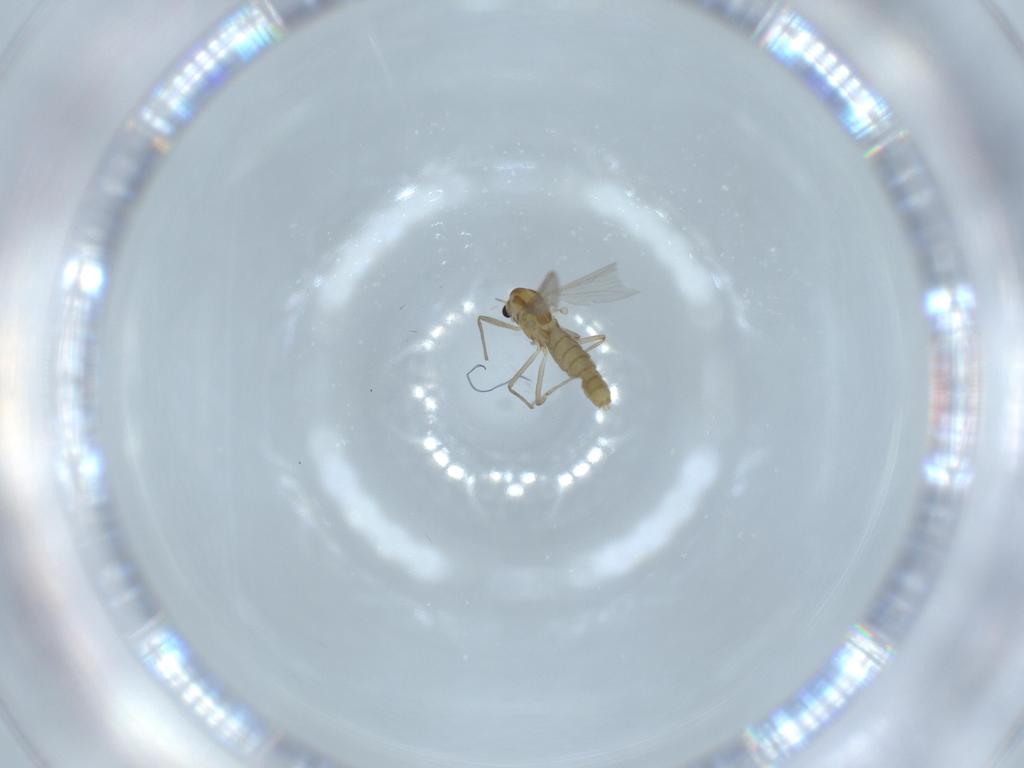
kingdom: Animalia
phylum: Arthropoda
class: Insecta
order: Diptera
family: Chironomidae
